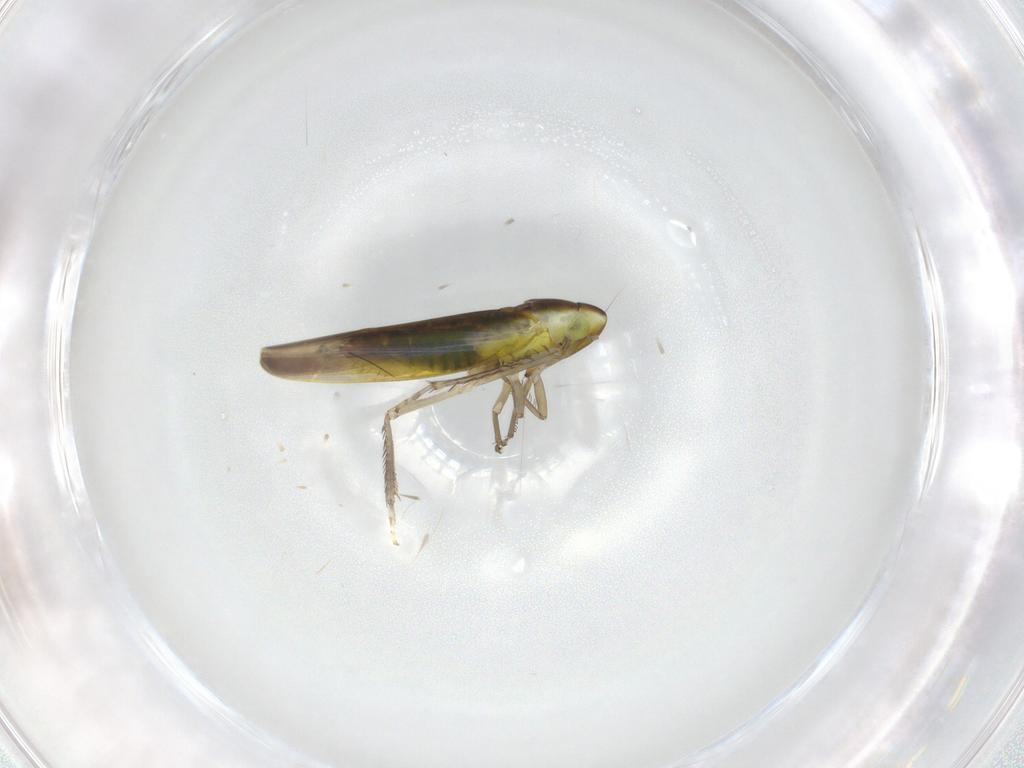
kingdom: Animalia
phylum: Arthropoda
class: Insecta
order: Hemiptera
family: Cicadellidae
